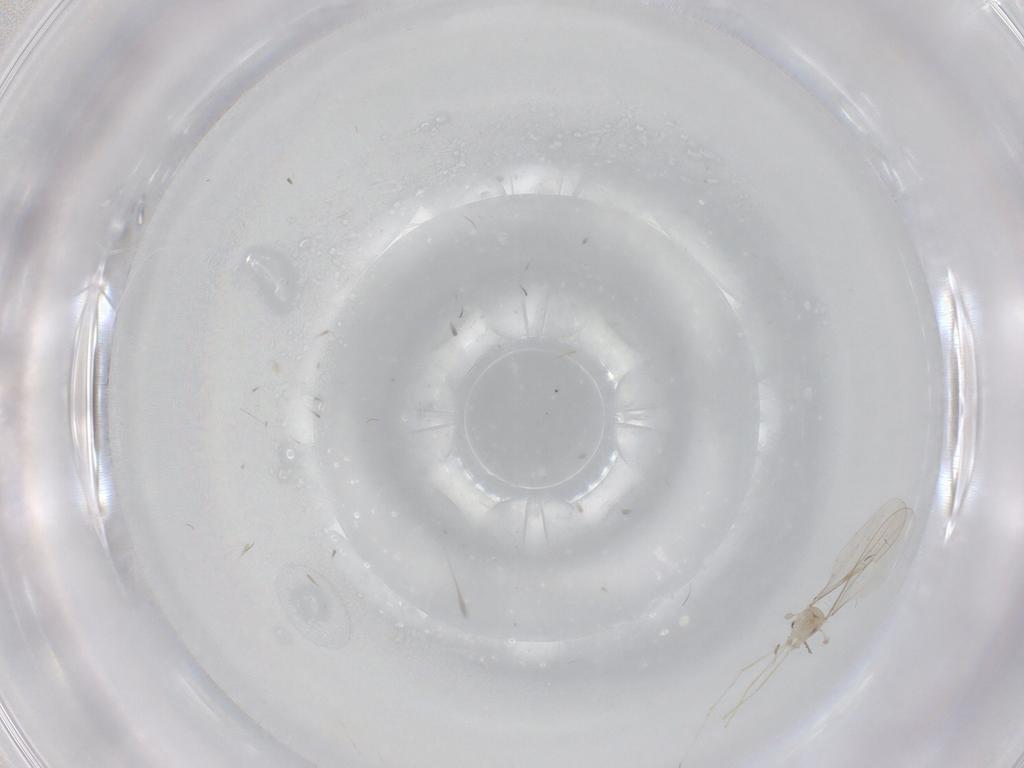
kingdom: Animalia
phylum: Arthropoda
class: Insecta
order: Diptera
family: Cecidomyiidae
